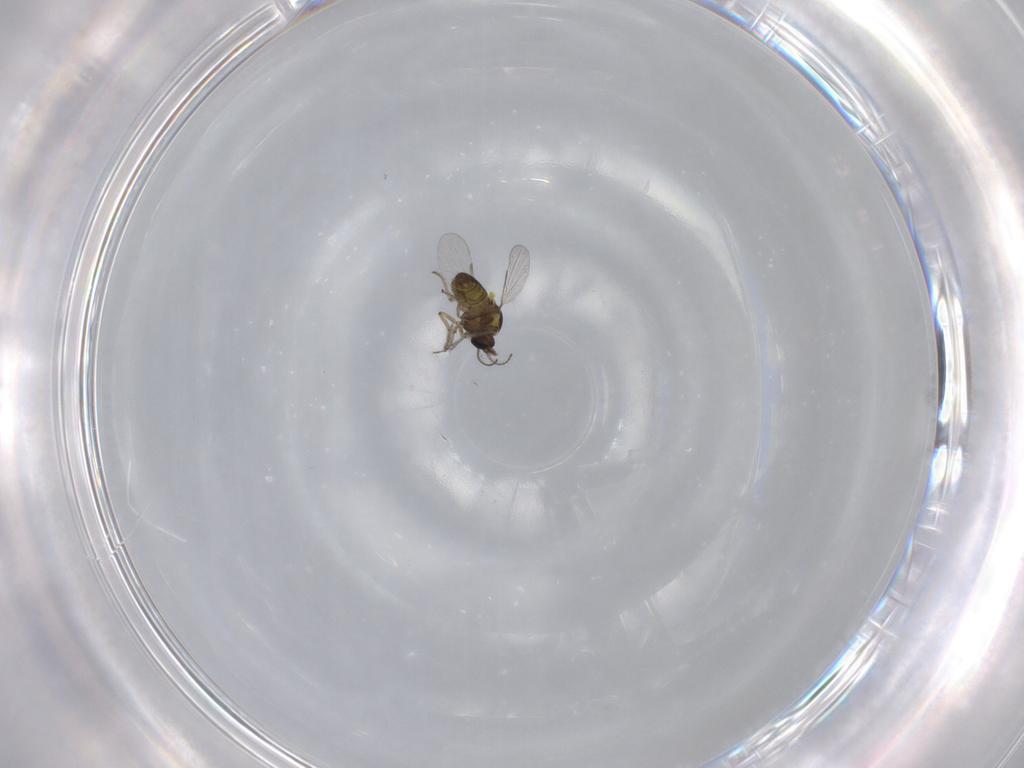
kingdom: Animalia
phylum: Arthropoda
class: Insecta
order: Diptera
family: Ceratopogonidae
